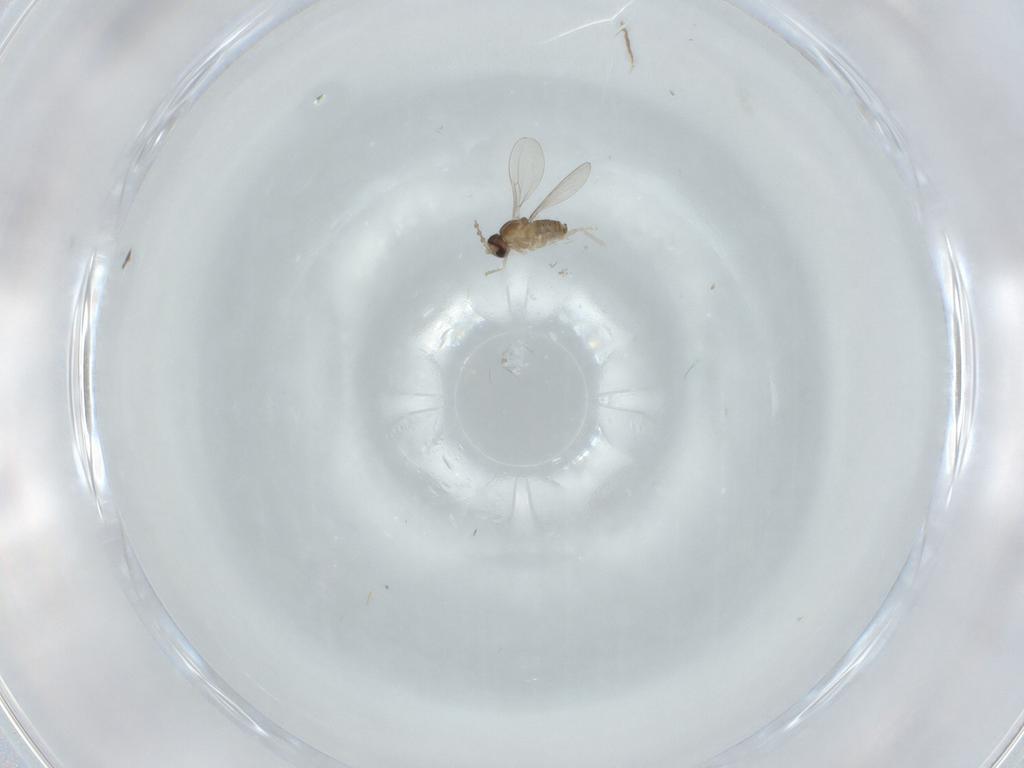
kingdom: Animalia
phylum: Arthropoda
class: Insecta
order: Diptera
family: Cecidomyiidae
